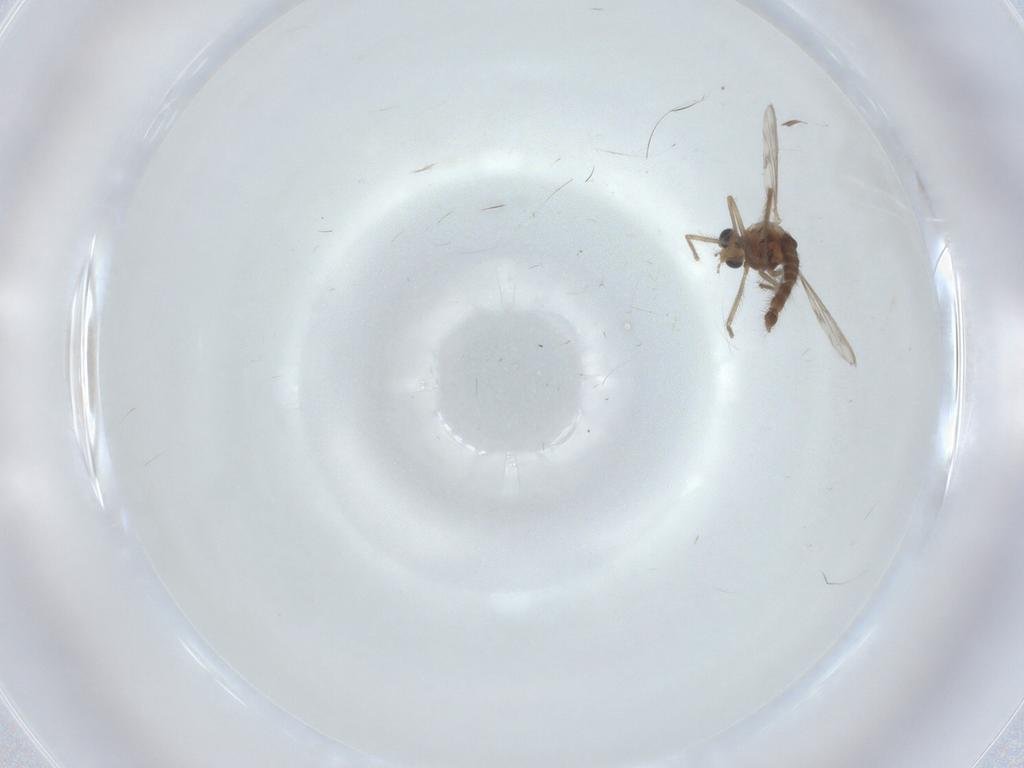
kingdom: Animalia
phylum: Arthropoda
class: Insecta
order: Diptera
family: Chironomidae
